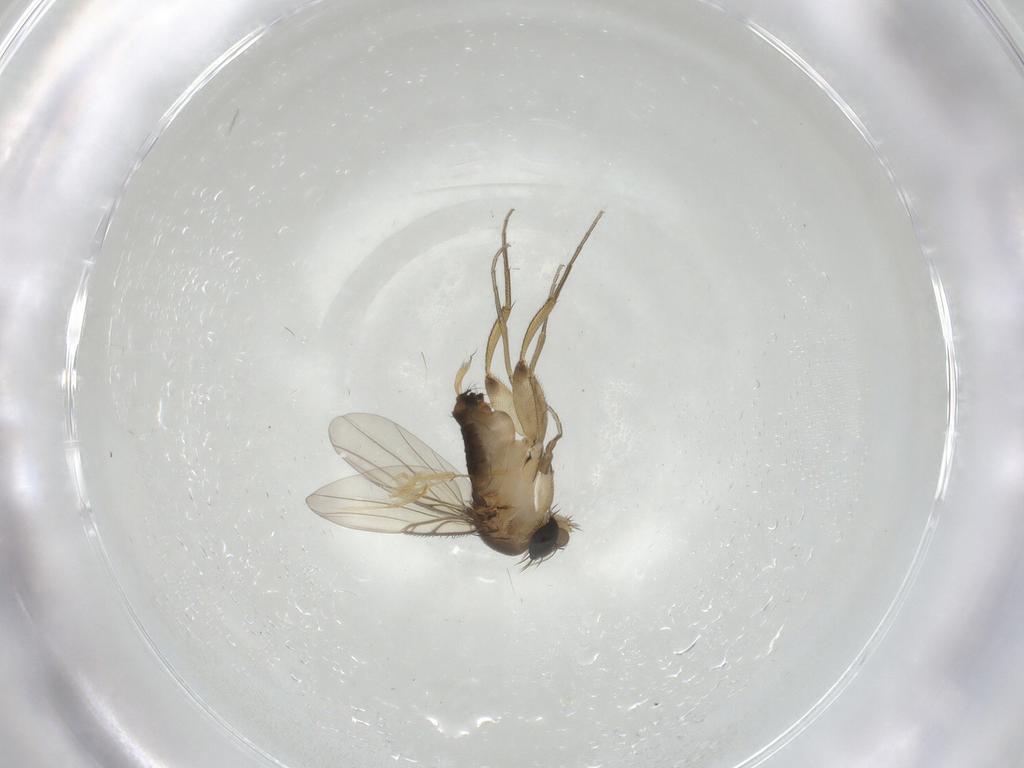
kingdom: Animalia
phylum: Arthropoda
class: Insecta
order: Diptera
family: Phoridae
